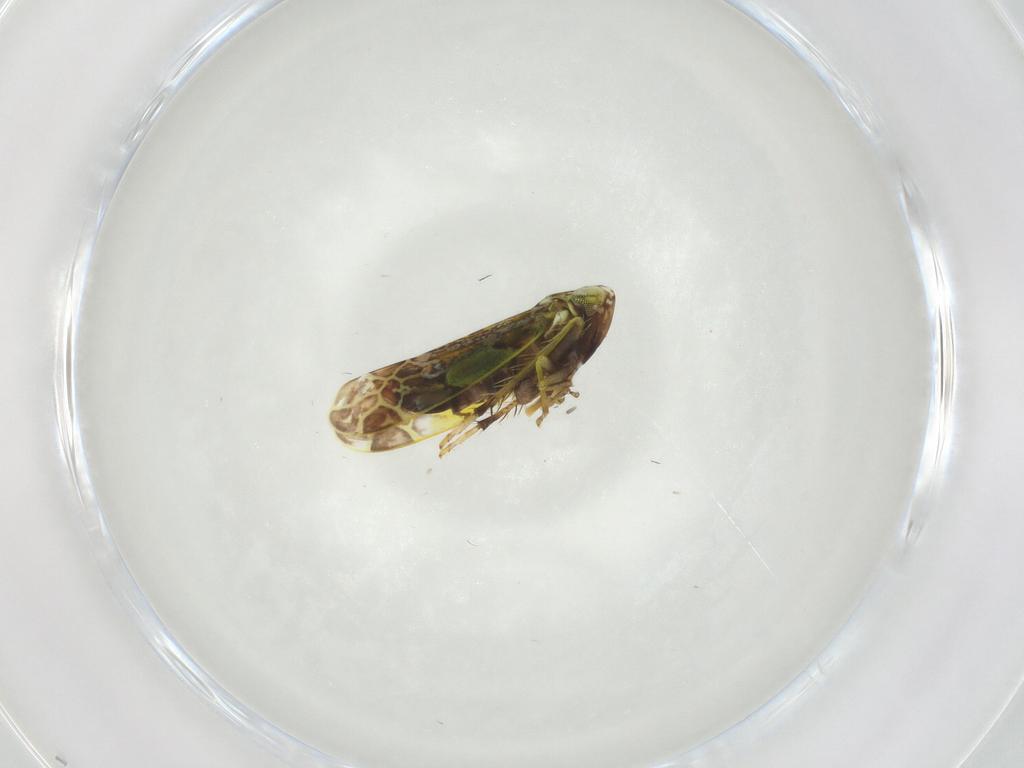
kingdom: Animalia
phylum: Arthropoda
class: Insecta
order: Hemiptera
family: Cicadellidae
